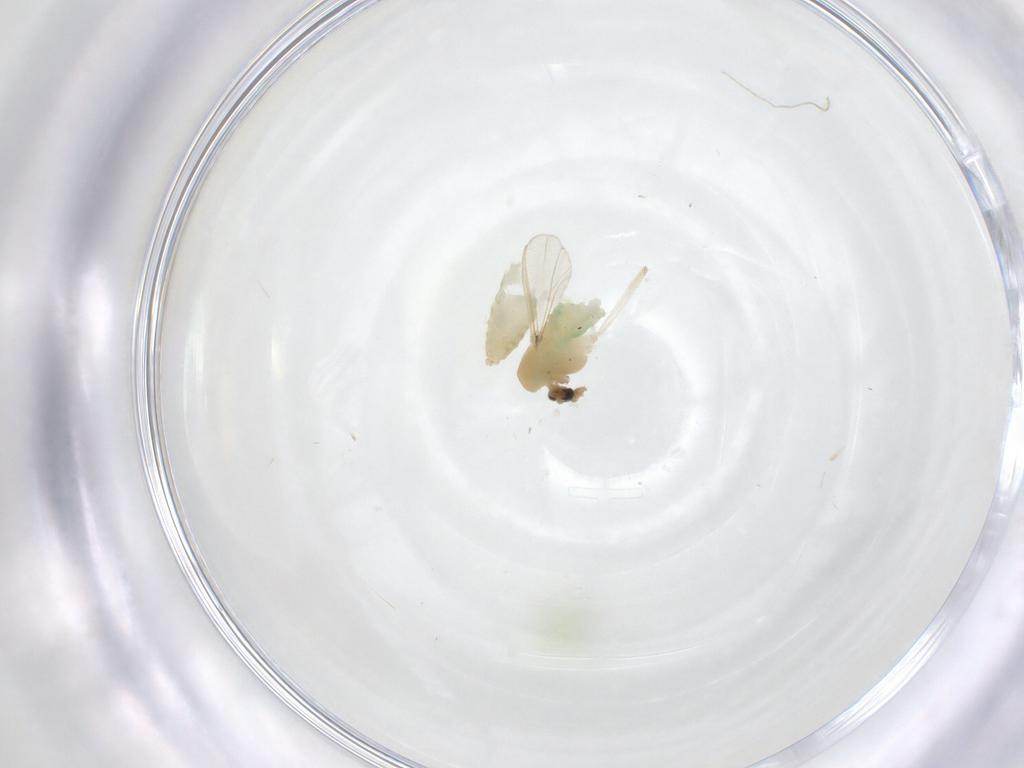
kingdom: Animalia
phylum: Arthropoda
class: Insecta
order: Diptera
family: Chironomidae
